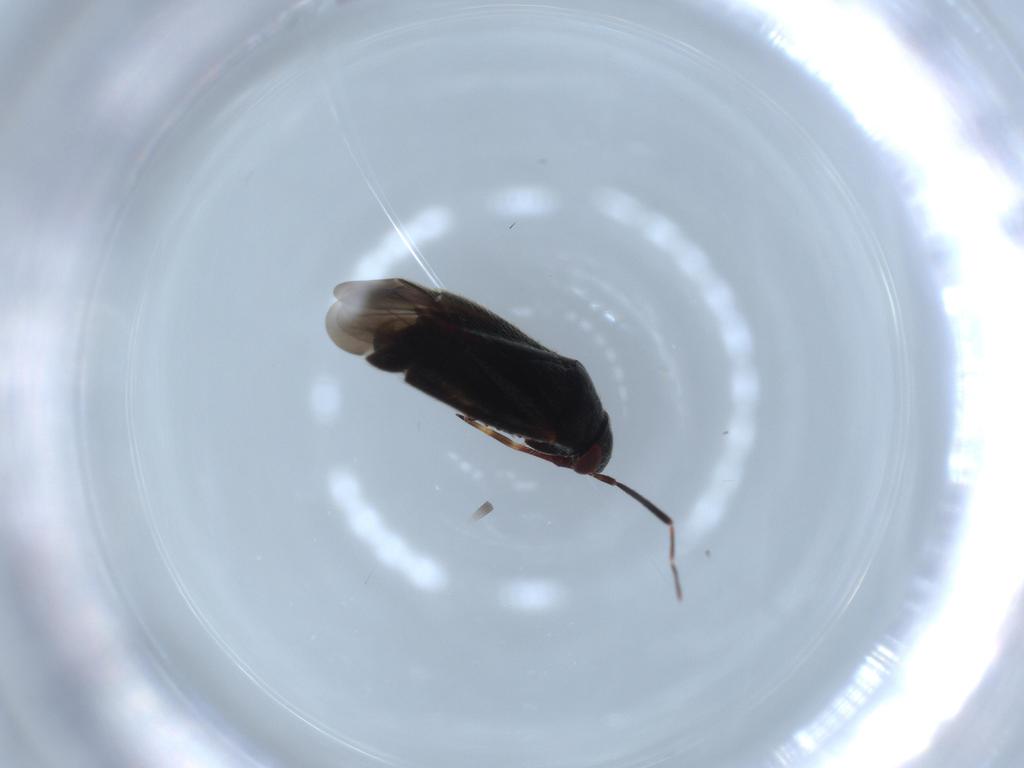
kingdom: Animalia
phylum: Arthropoda
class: Insecta
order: Hemiptera
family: Miridae
